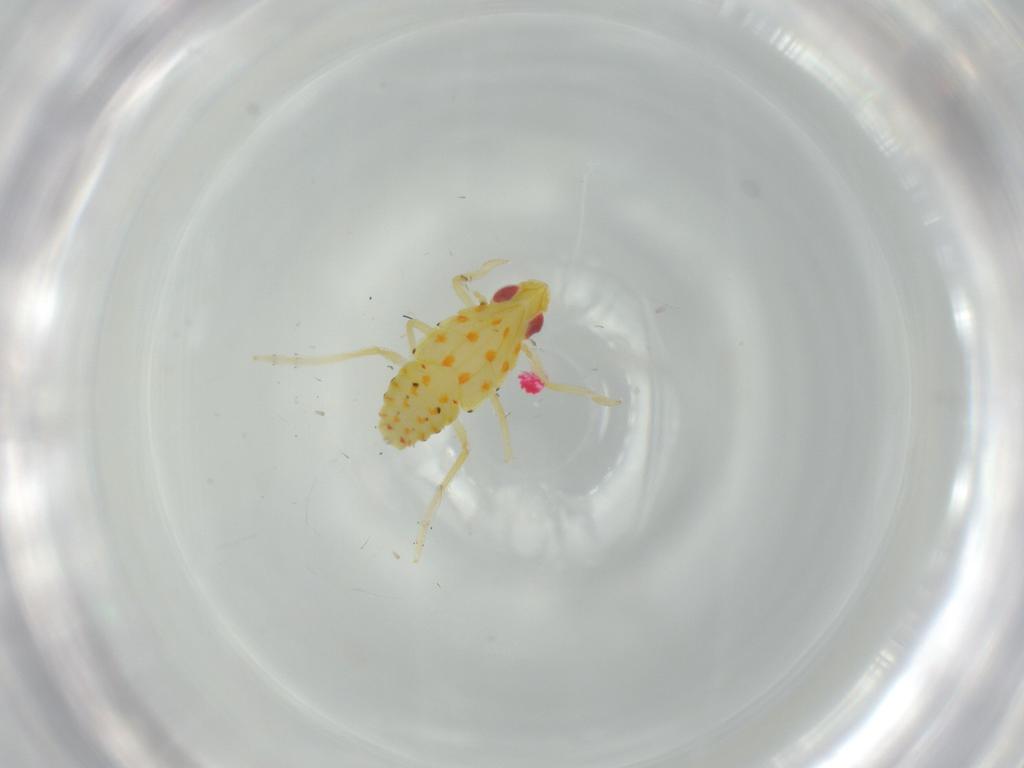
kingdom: Animalia
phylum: Arthropoda
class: Insecta
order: Hemiptera
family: Tropiduchidae
